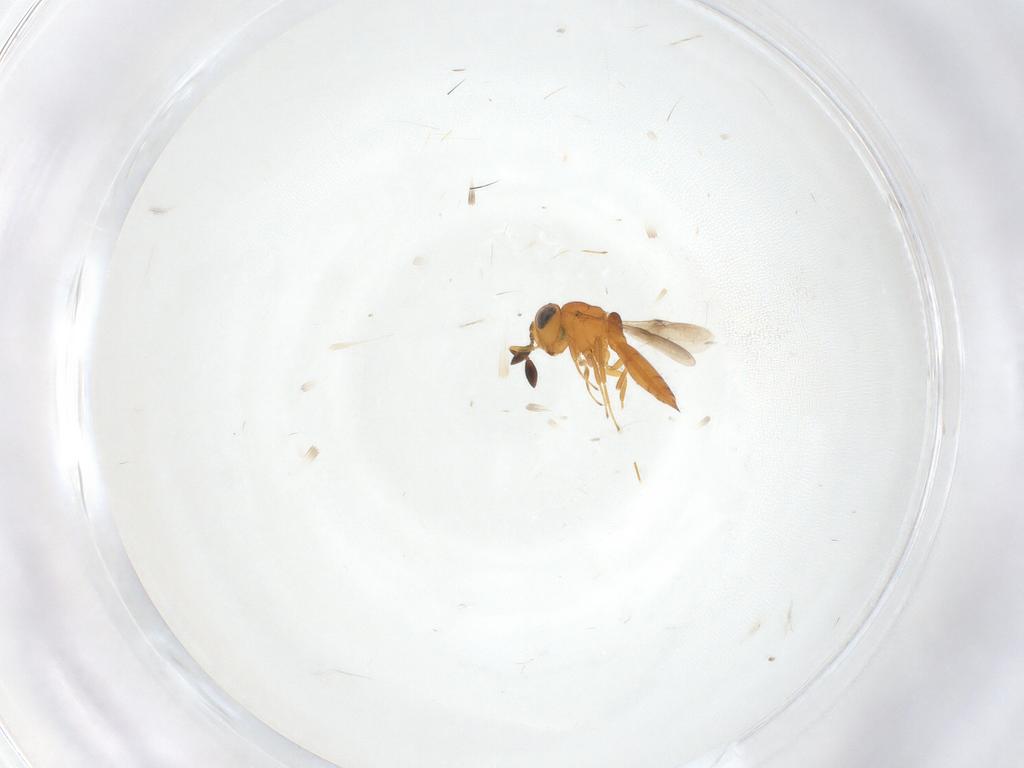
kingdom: Animalia
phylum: Arthropoda
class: Insecta
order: Hymenoptera
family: Scelionidae
